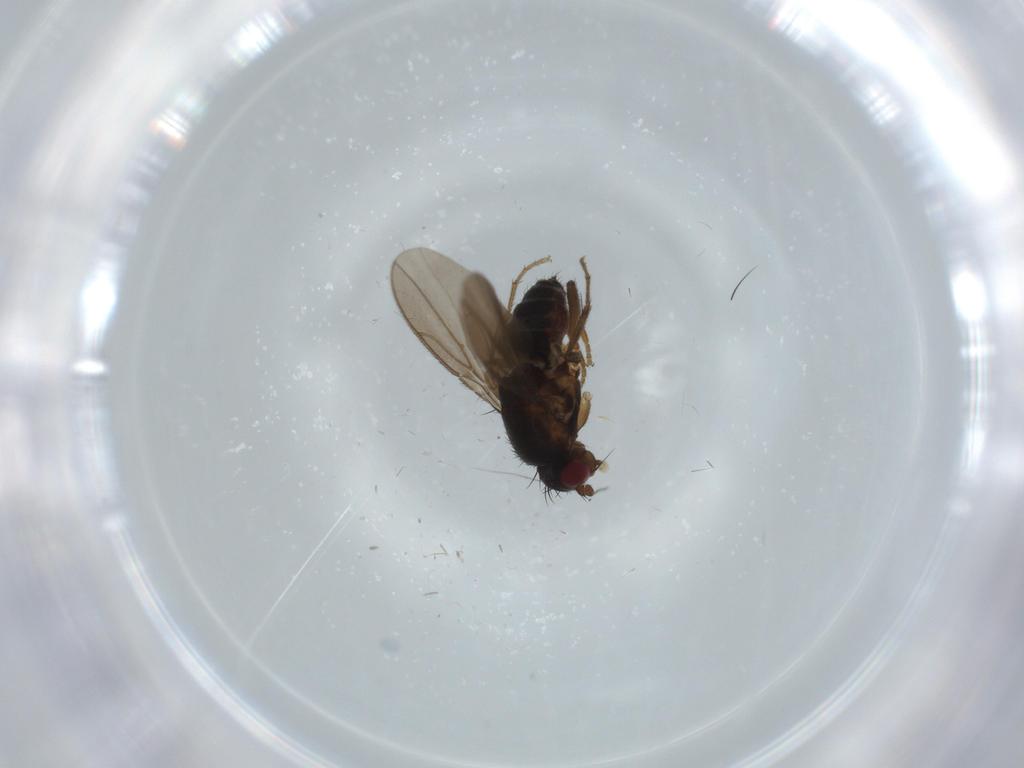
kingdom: Animalia
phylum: Arthropoda
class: Insecta
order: Diptera
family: Sphaeroceridae
